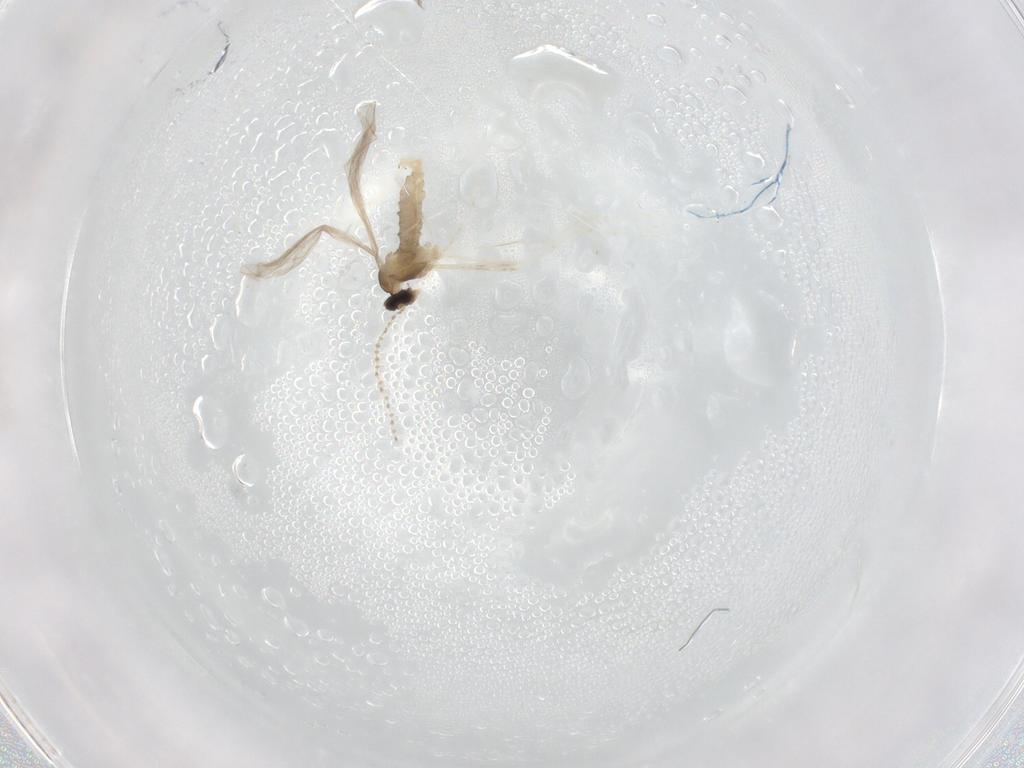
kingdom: Animalia
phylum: Arthropoda
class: Insecta
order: Diptera
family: Cecidomyiidae
